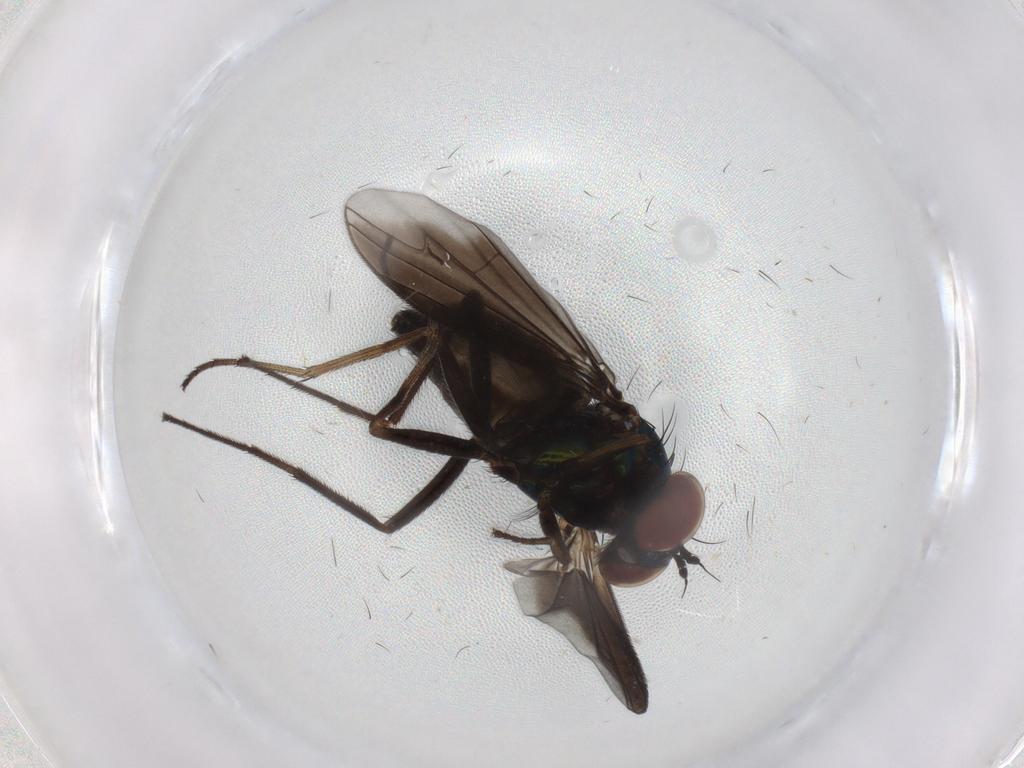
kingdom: Animalia
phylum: Arthropoda
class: Insecta
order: Diptera
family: Dolichopodidae
